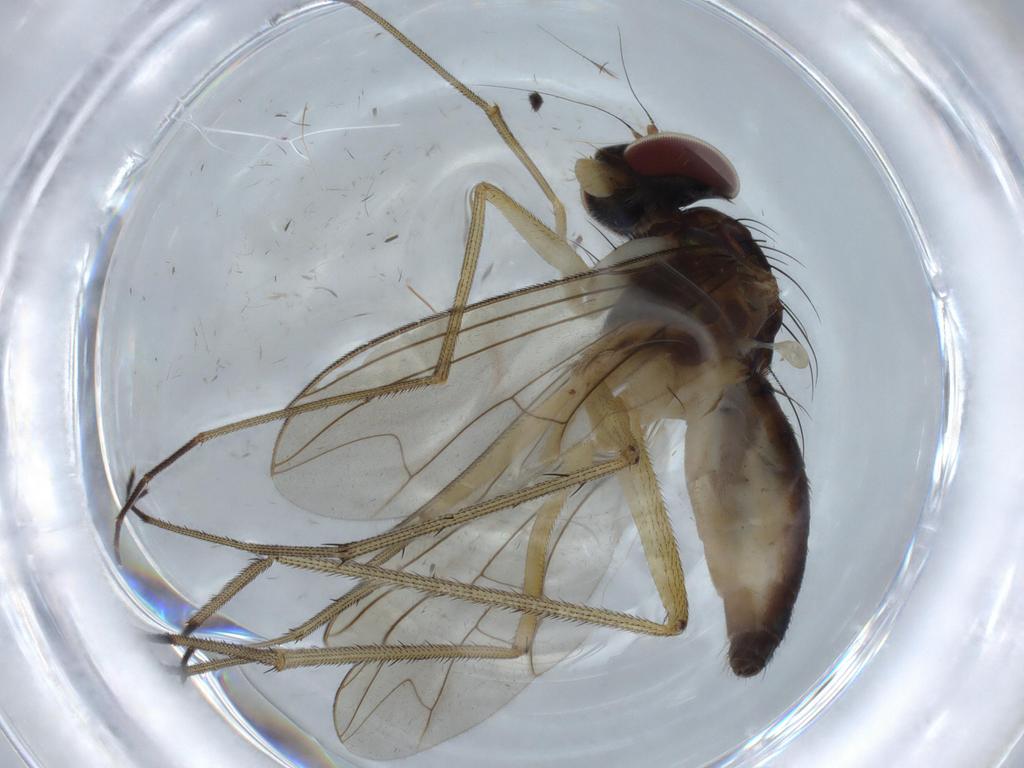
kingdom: Animalia
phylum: Arthropoda
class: Insecta
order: Diptera
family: Dolichopodidae
